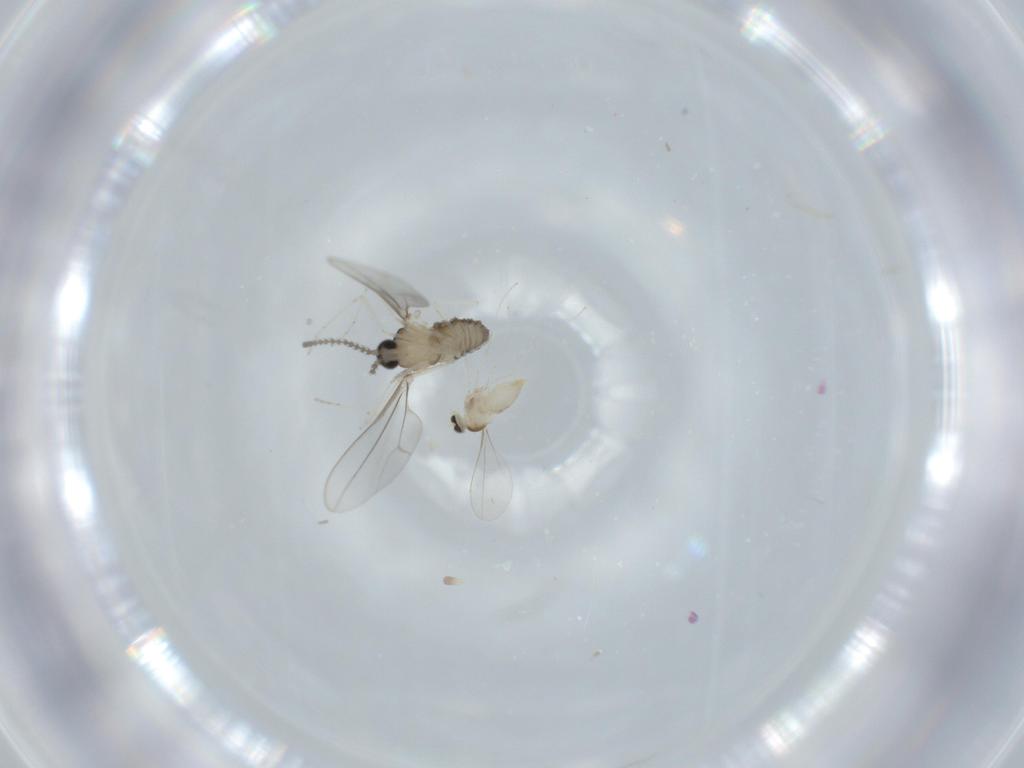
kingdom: Animalia
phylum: Arthropoda
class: Insecta
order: Diptera
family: Cecidomyiidae
